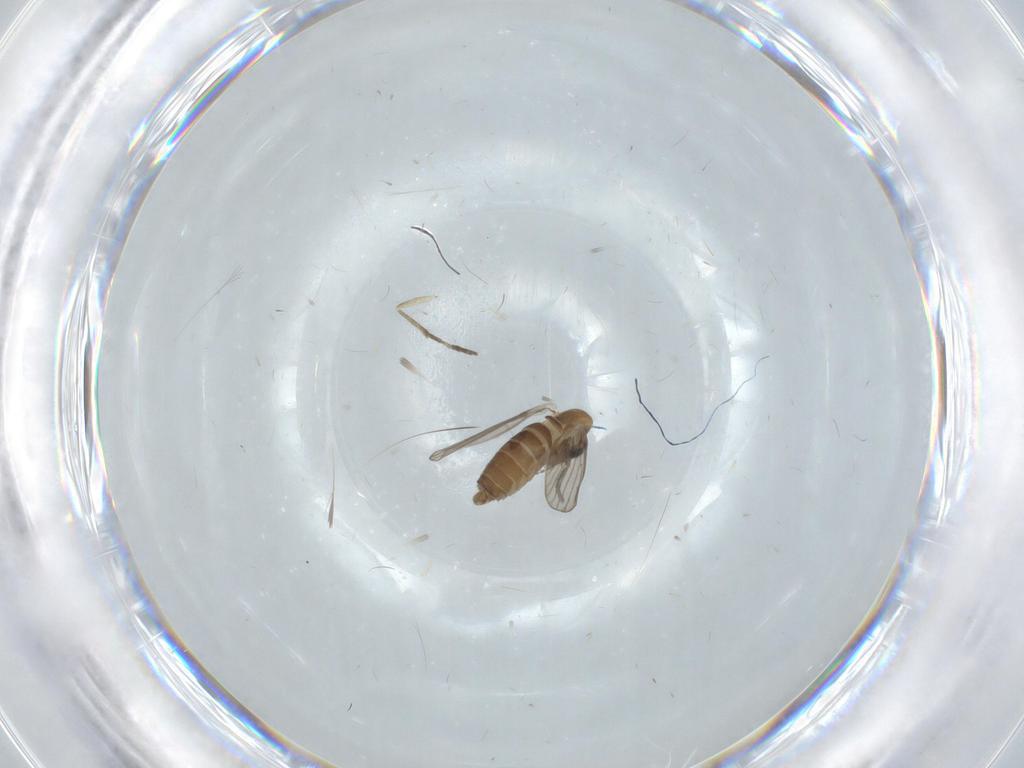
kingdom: Animalia
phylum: Arthropoda
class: Insecta
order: Diptera
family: Psychodidae
